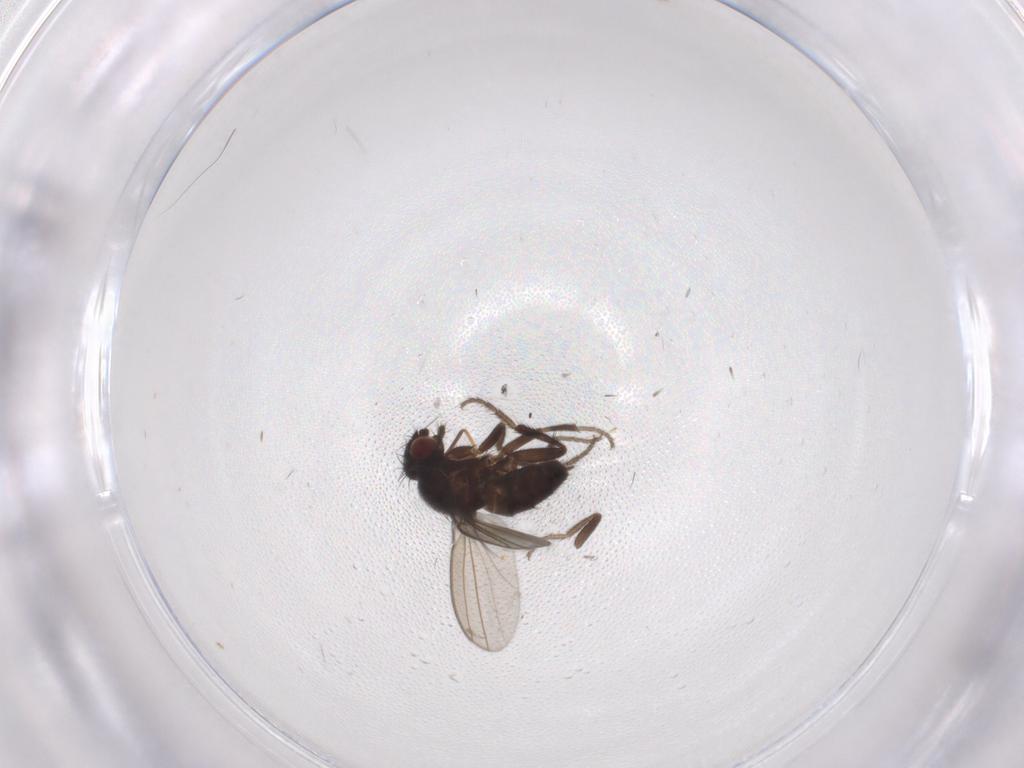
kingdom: Animalia
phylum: Arthropoda
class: Insecta
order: Diptera
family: Milichiidae
